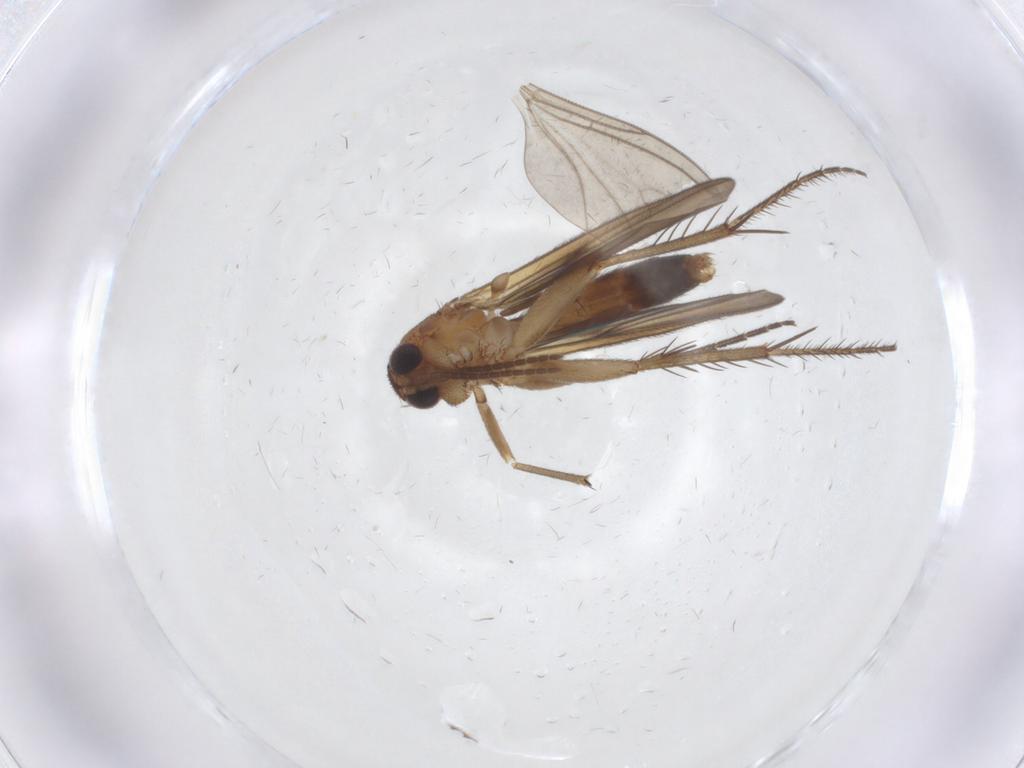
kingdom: Animalia
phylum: Arthropoda
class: Insecta
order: Diptera
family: Mycetophilidae
